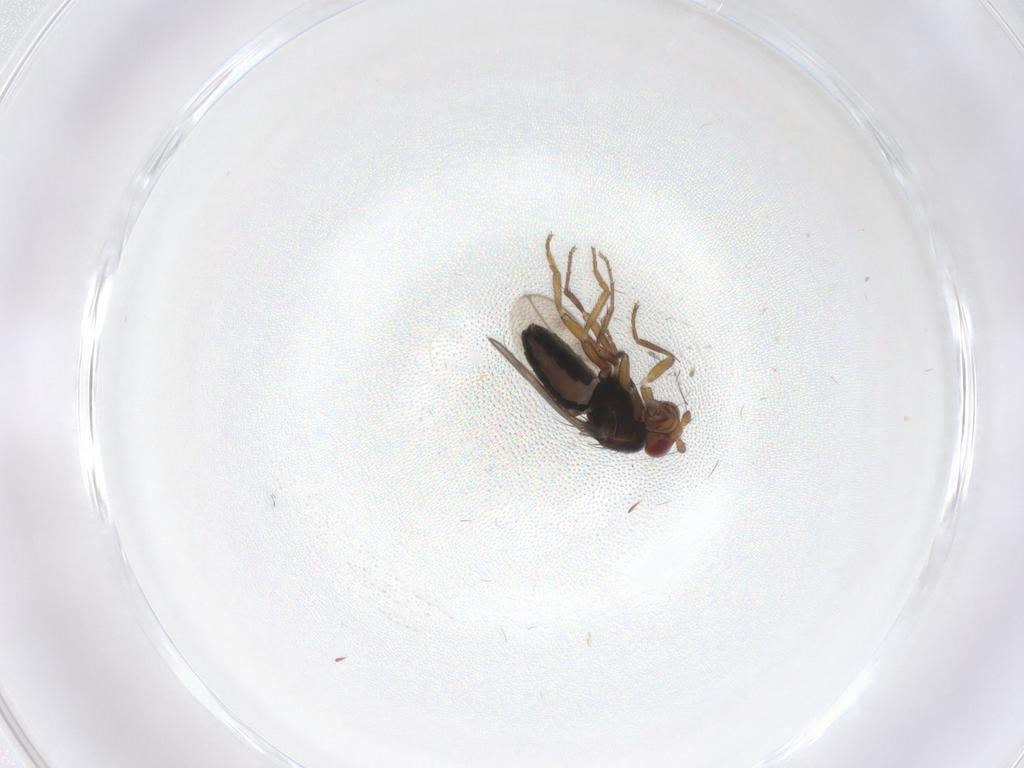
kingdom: Animalia
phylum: Arthropoda
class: Insecta
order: Diptera
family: Sphaeroceridae
